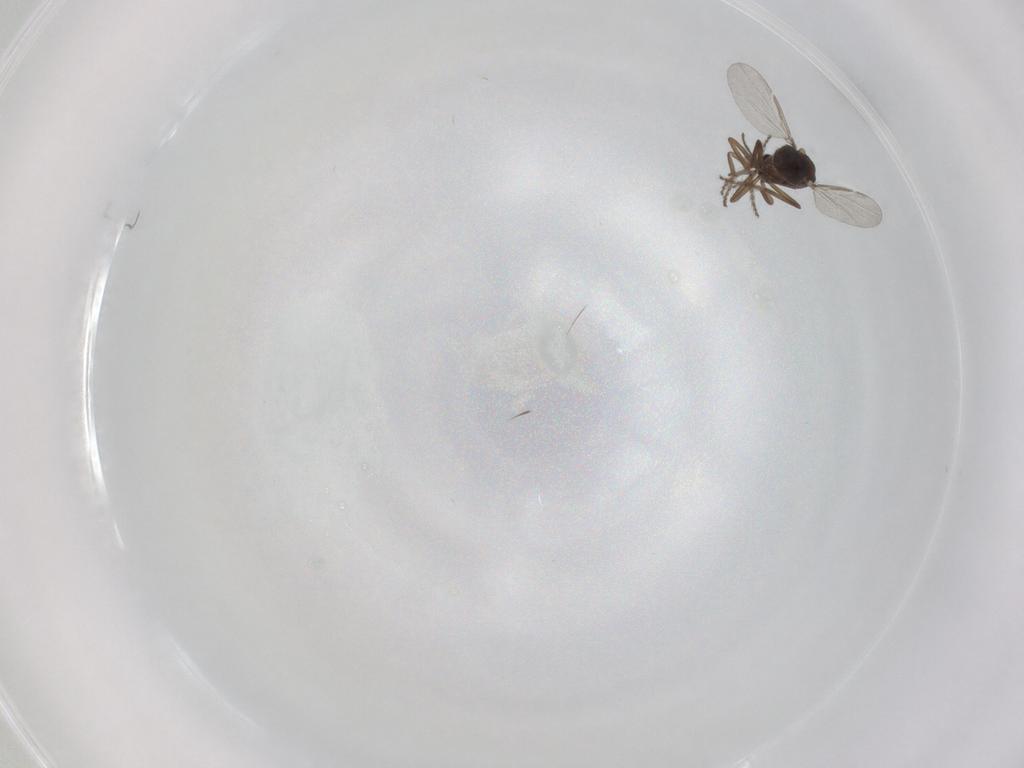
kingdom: Animalia
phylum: Arthropoda
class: Insecta
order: Diptera
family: Ceratopogonidae
